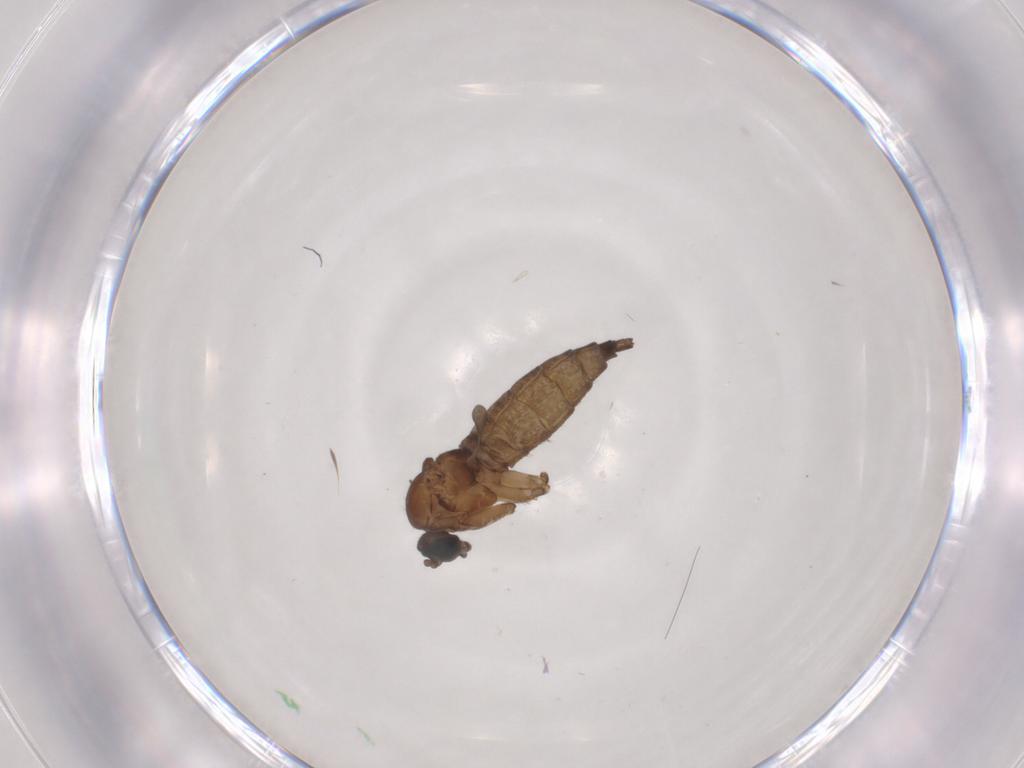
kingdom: Animalia
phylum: Arthropoda
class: Insecta
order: Diptera
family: Sciaridae
